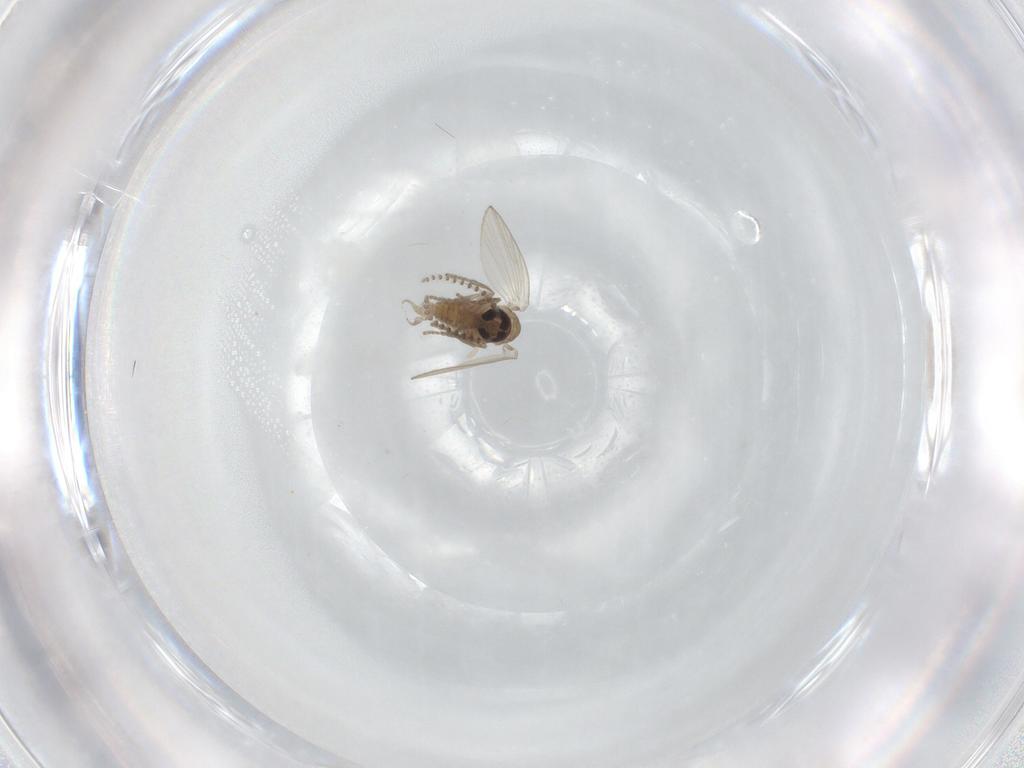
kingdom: Animalia
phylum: Arthropoda
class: Insecta
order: Diptera
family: Psychodidae
